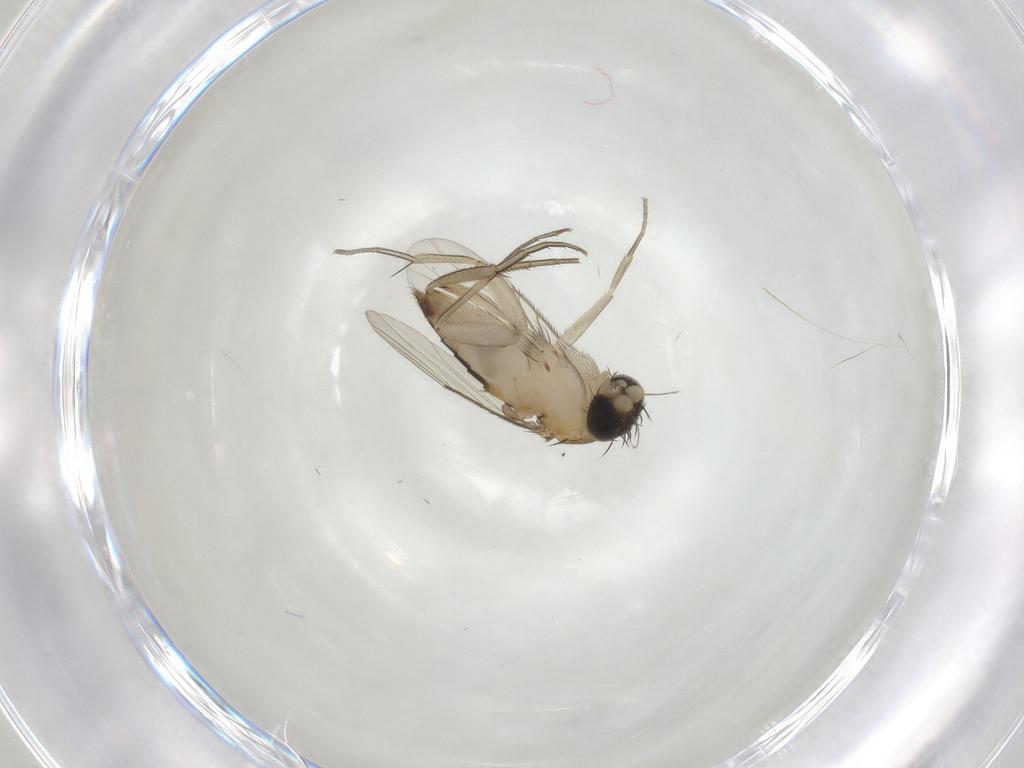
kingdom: Animalia
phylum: Arthropoda
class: Insecta
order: Diptera
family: Phoridae
